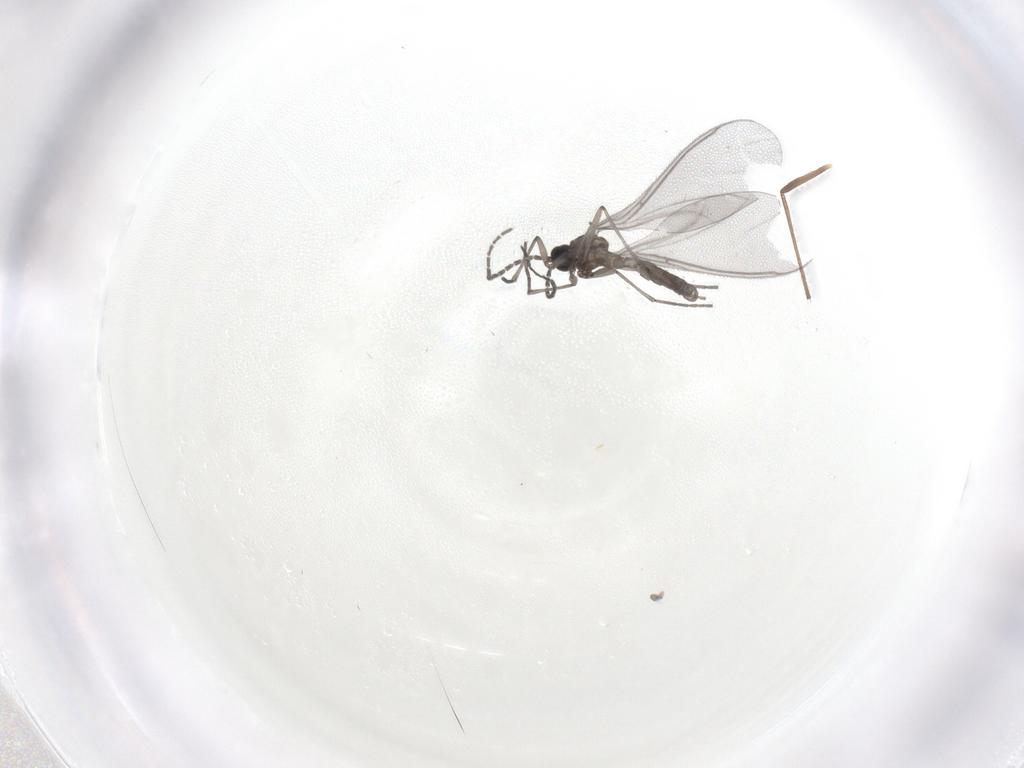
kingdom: Animalia
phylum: Arthropoda
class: Insecta
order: Diptera
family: Sciaridae
